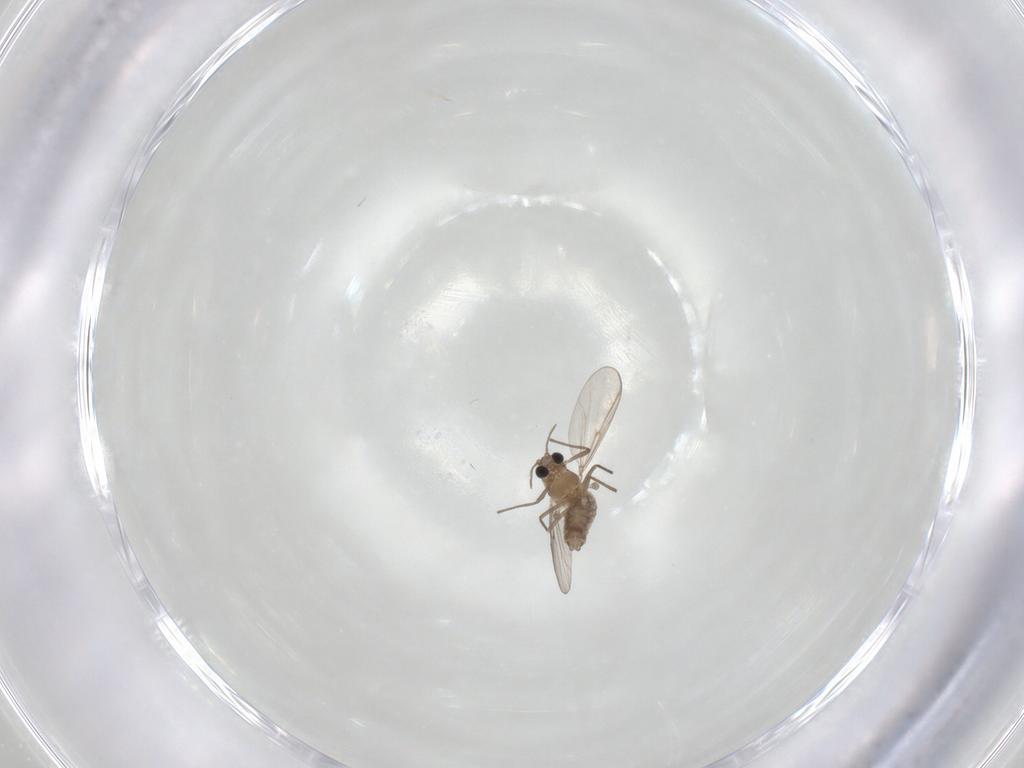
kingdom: Animalia
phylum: Arthropoda
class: Insecta
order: Diptera
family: Chironomidae
